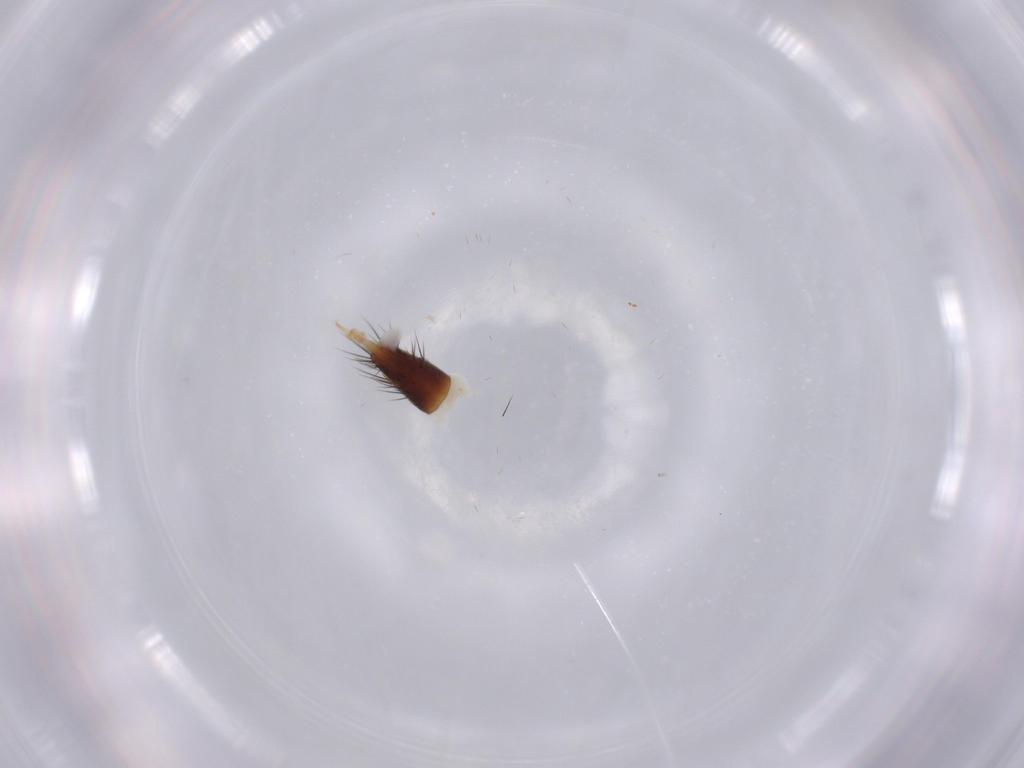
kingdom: Animalia
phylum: Arthropoda
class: Insecta
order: Coleoptera
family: Staphylinidae
